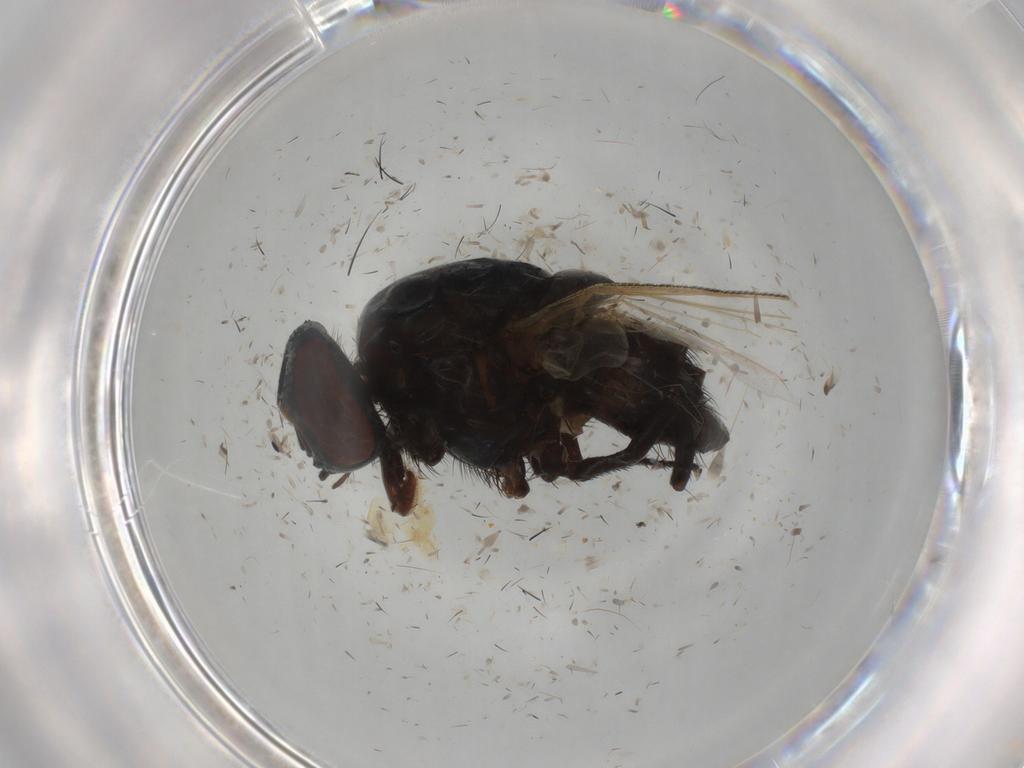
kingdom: Animalia
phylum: Arthropoda
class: Insecta
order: Diptera
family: Muscidae
